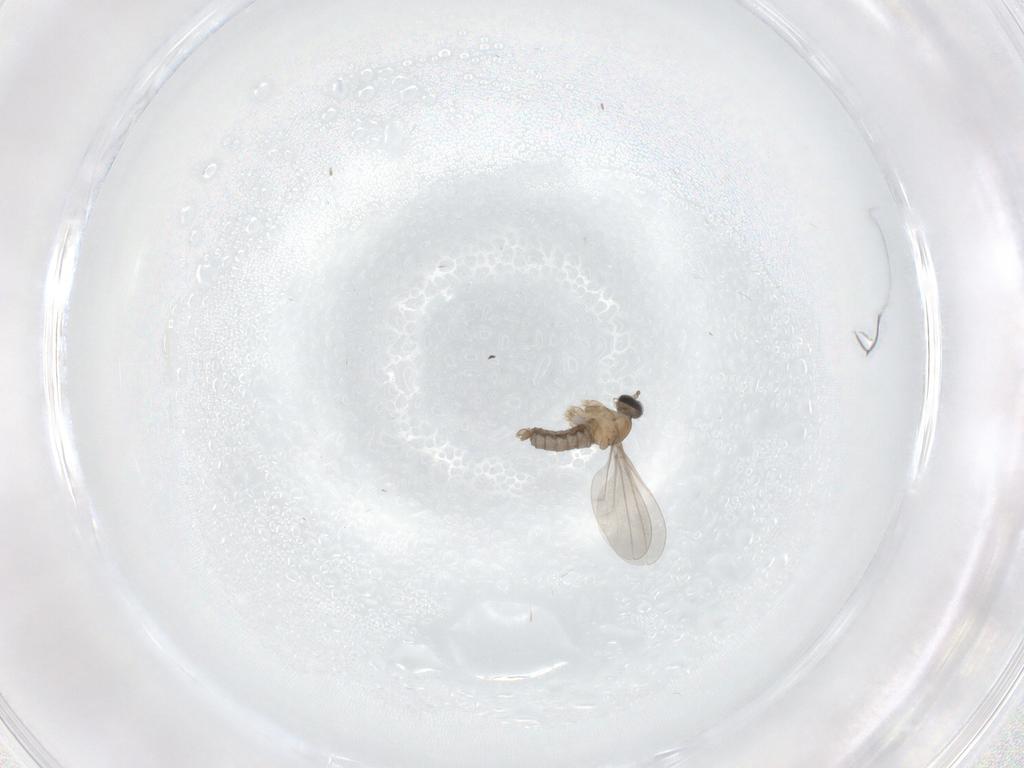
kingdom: Animalia
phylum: Arthropoda
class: Insecta
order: Diptera
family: Cecidomyiidae
